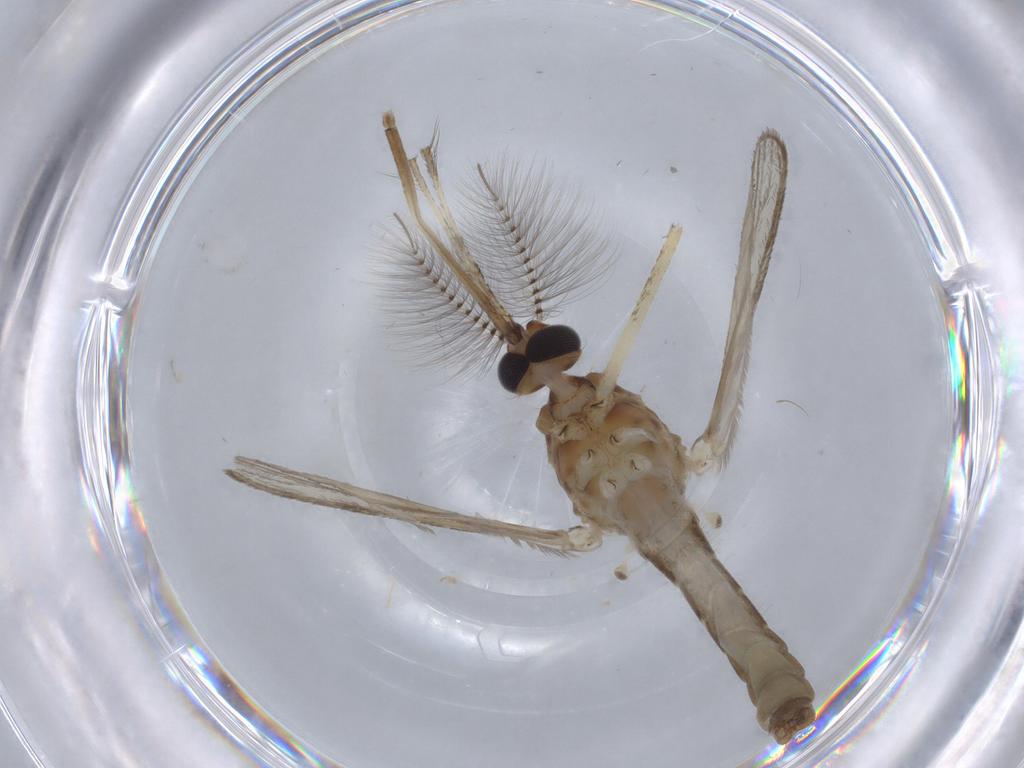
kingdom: Animalia
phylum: Arthropoda
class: Insecta
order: Diptera
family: Culicidae
